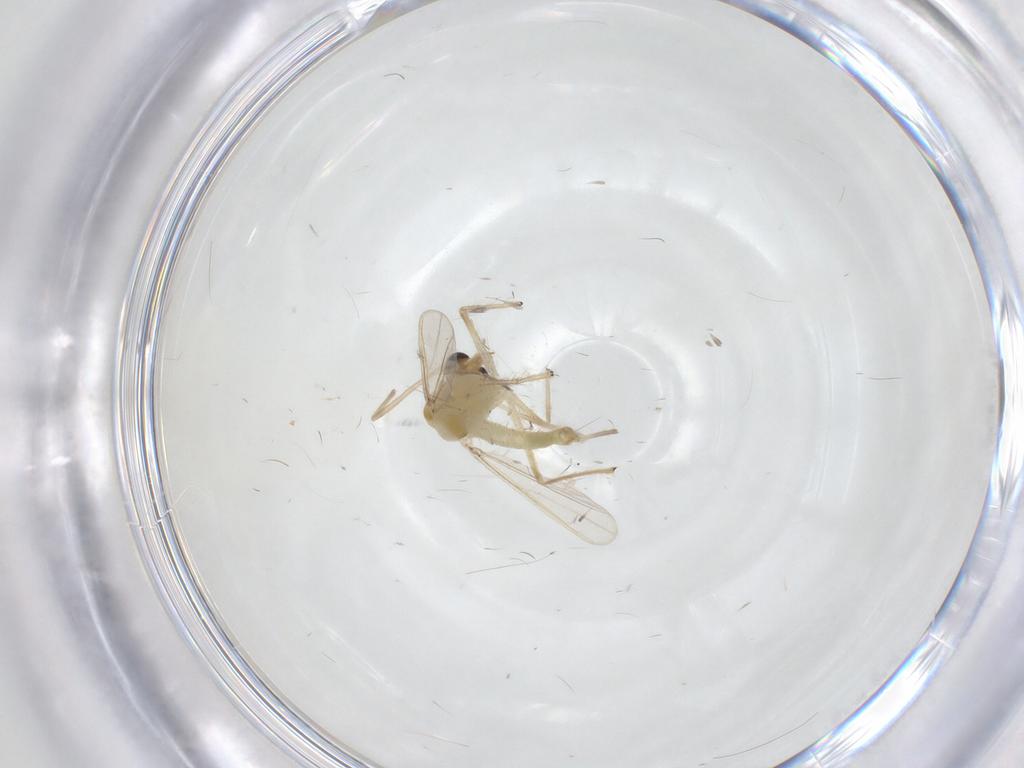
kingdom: Animalia
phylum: Arthropoda
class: Insecta
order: Diptera
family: Chironomidae
